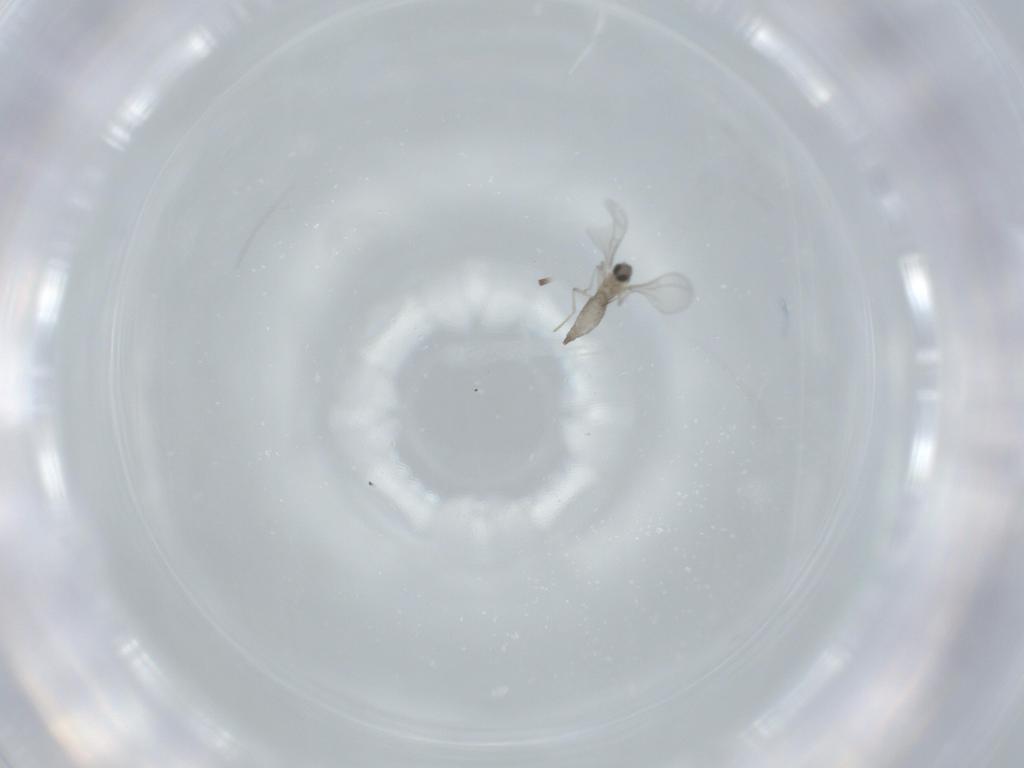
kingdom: Animalia
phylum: Arthropoda
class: Insecta
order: Diptera
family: Cecidomyiidae
